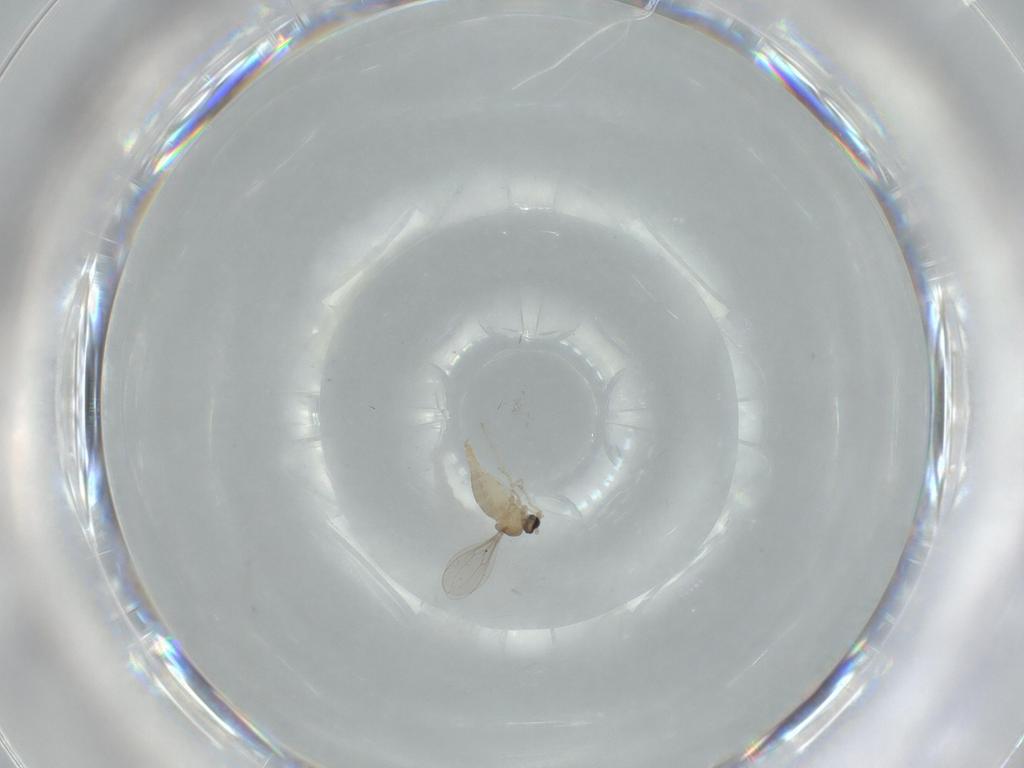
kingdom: Animalia
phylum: Arthropoda
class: Insecta
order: Diptera
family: Cecidomyiidae
